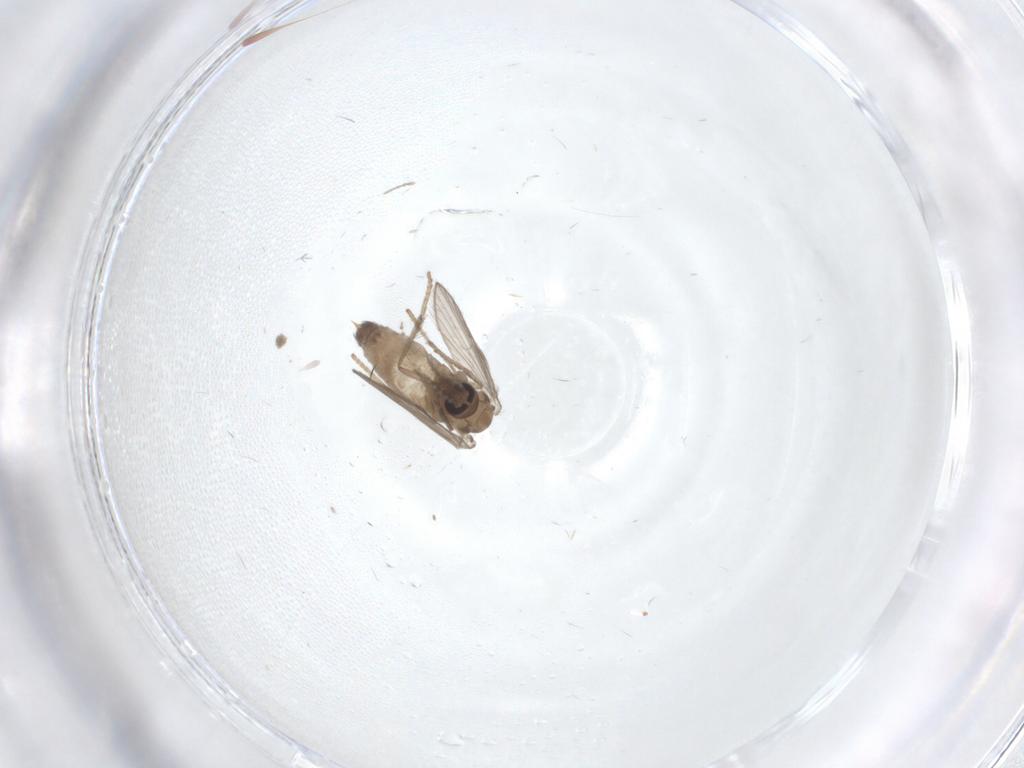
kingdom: Animalia
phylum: Arthropoda
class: Insecta
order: Diptera
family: Psychodidae
